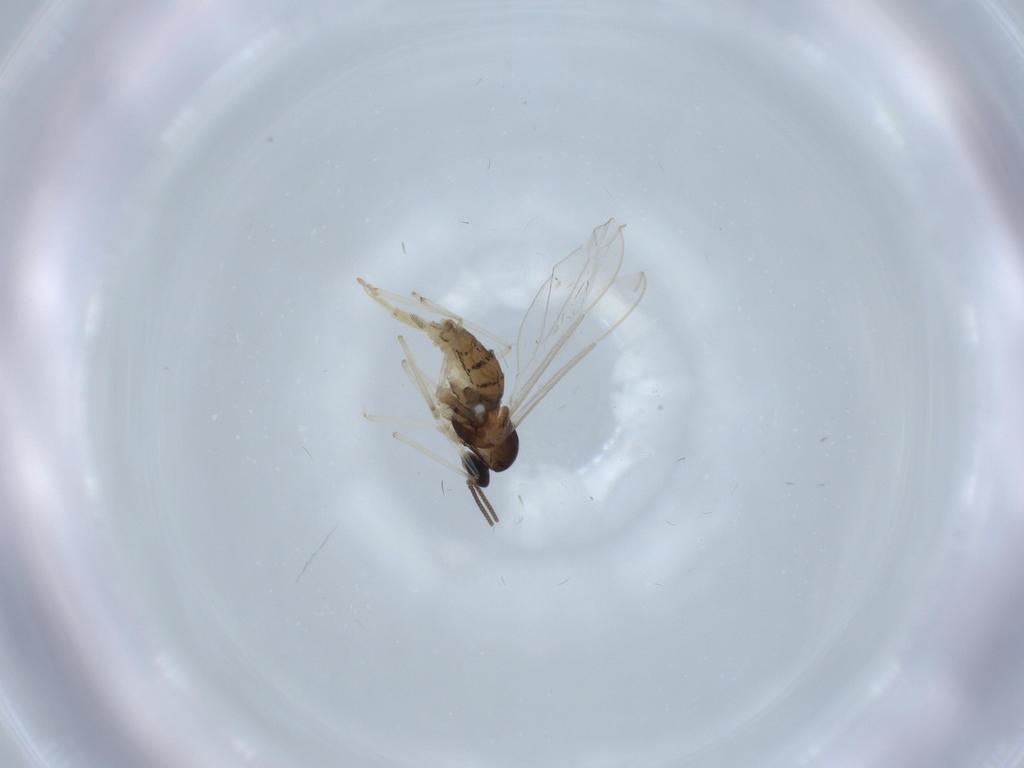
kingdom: Animalia
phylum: Arthropoda
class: Insecta
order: Diptera
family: Cecidomyiidae
